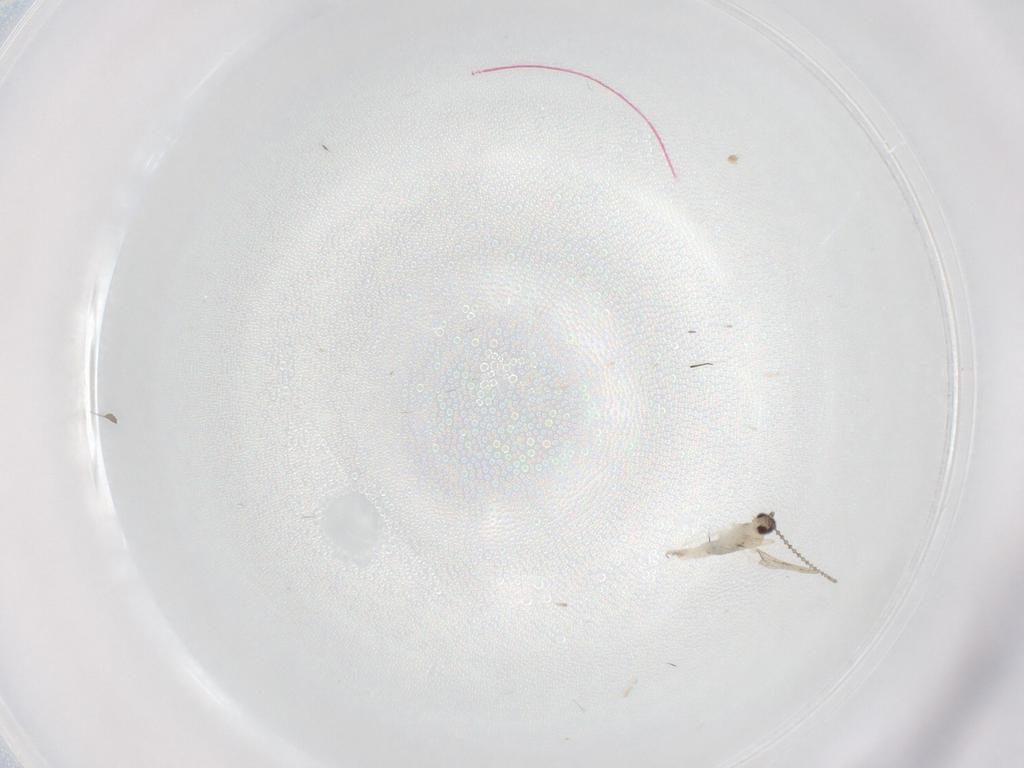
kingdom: Animalia
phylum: Arthropoda
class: Insecta
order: Diptera
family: Cecidomyiidae
